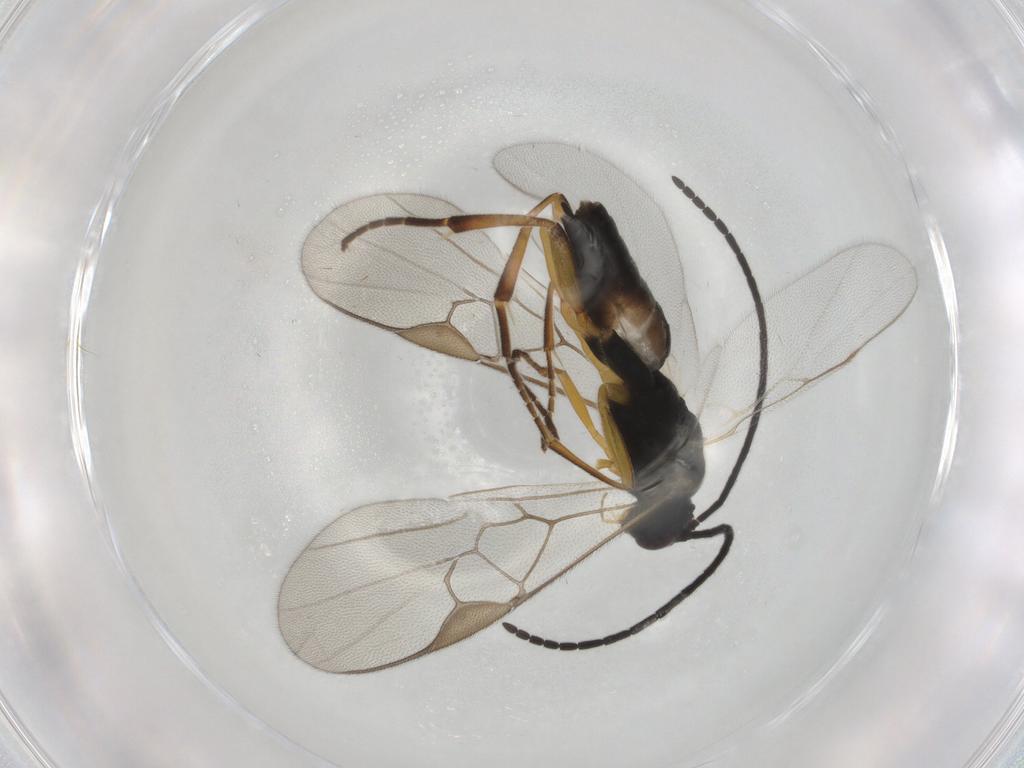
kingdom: Animalia
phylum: Arthropoda
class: Insecta
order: Hymenoptera
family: Braconidae
